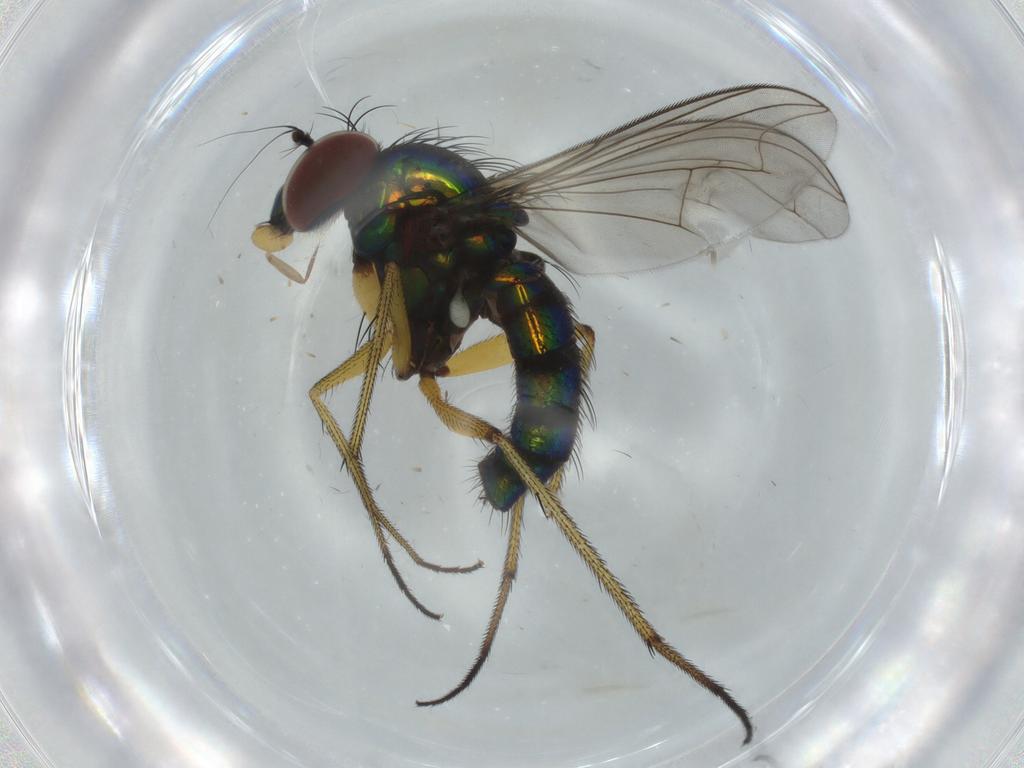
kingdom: Animalia
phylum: Arthropoda
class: Insecta
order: Diptera
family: Dolichopodidae
